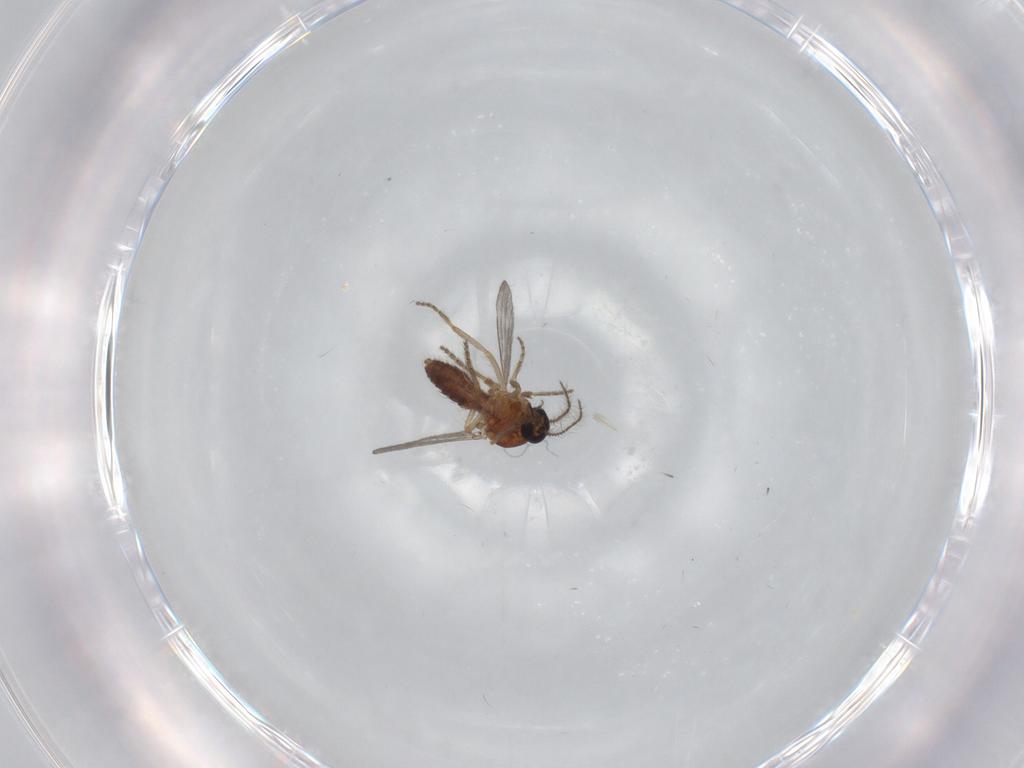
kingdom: Animalia
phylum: Arthropoda
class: Insecta
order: Diptera
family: Ceratopogonidae
